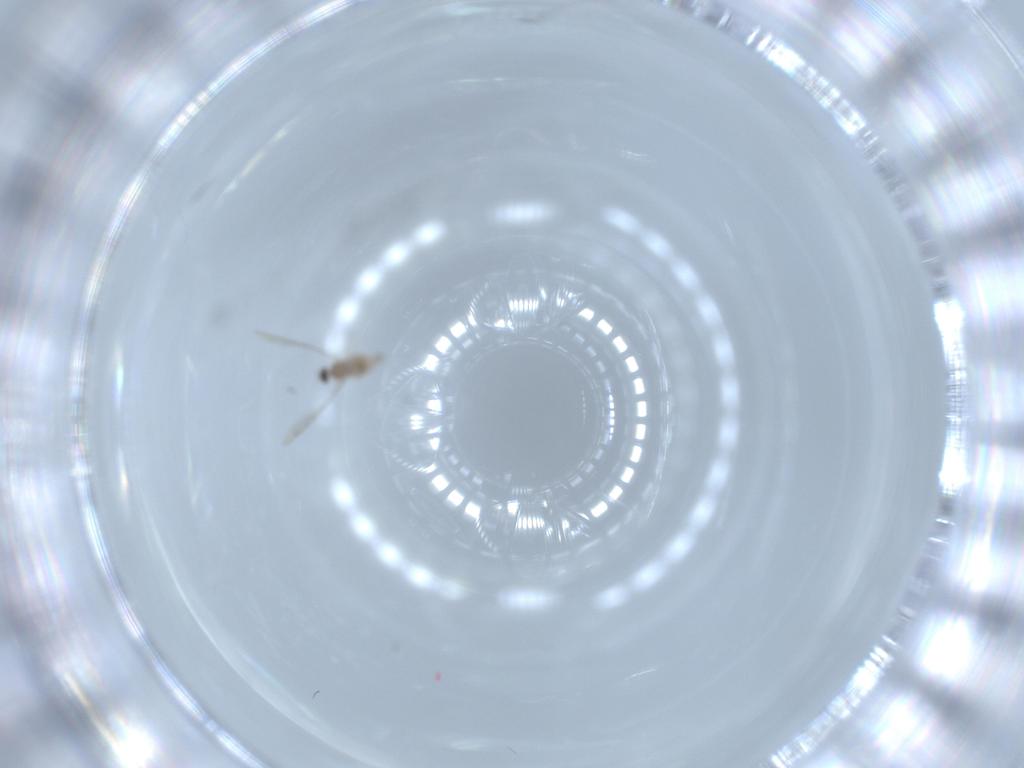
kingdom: Animalia
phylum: Arthropoda
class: Insecta
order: Diptera
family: Cecidomyiidae
